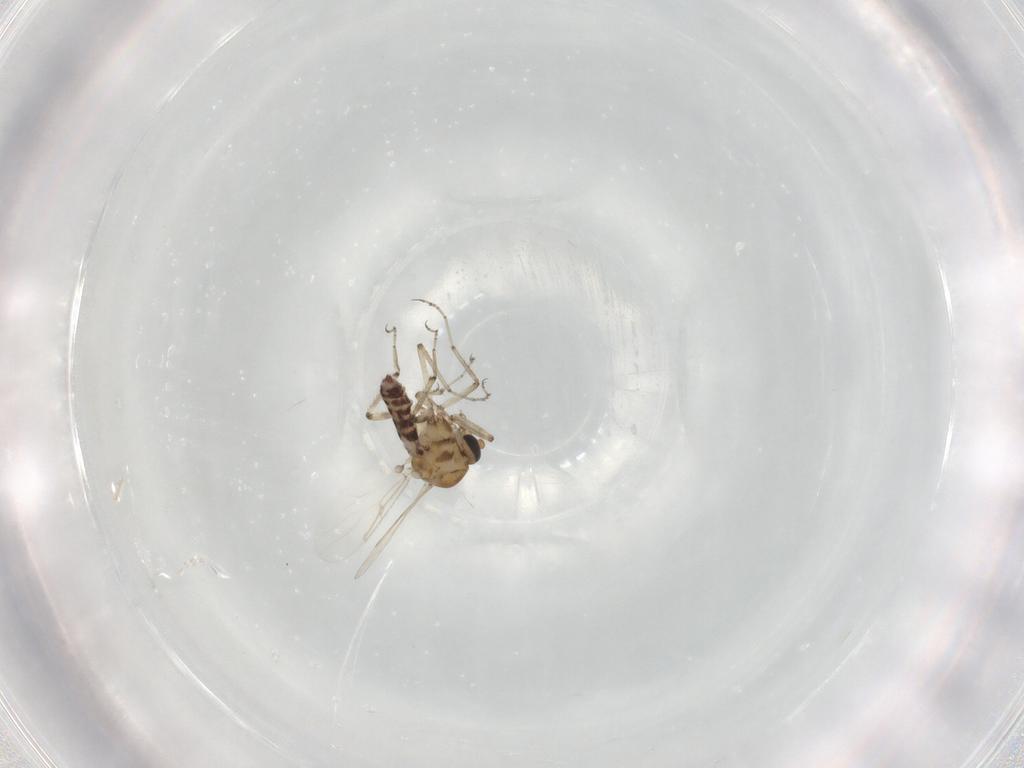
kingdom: Animalia
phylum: Arthropoda
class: Insecta
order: Diptera
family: Ceratopogonidae
